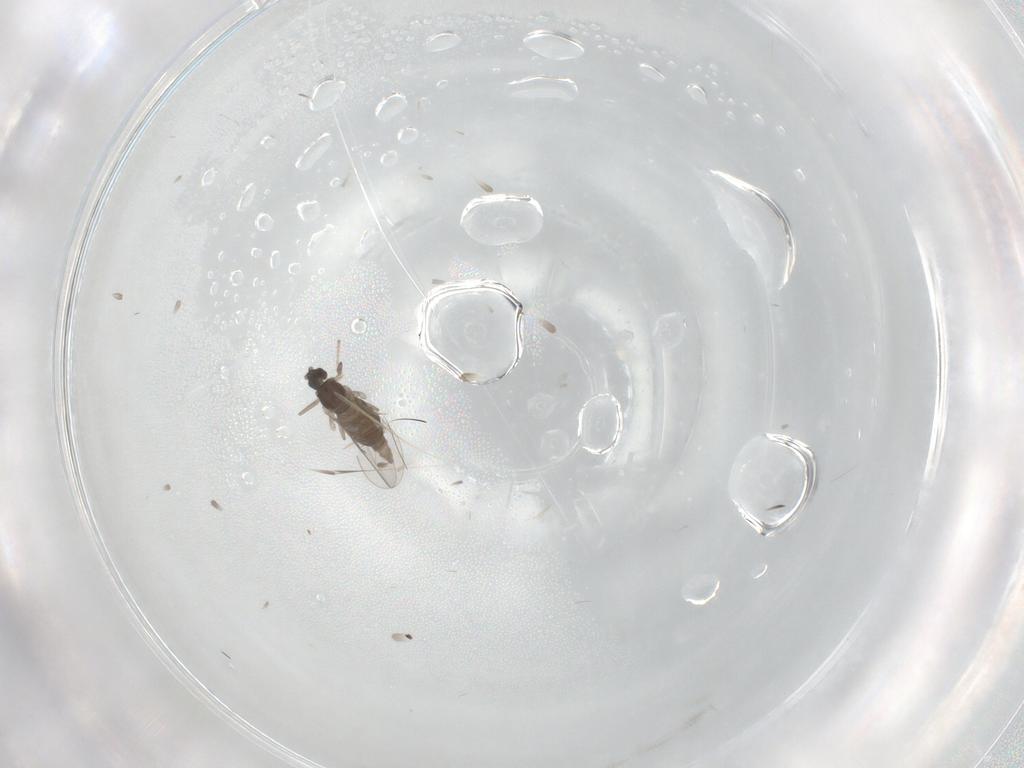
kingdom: Animalia
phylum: Arthropoda
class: Insecta
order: Diptera
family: Cecidomyiidae
